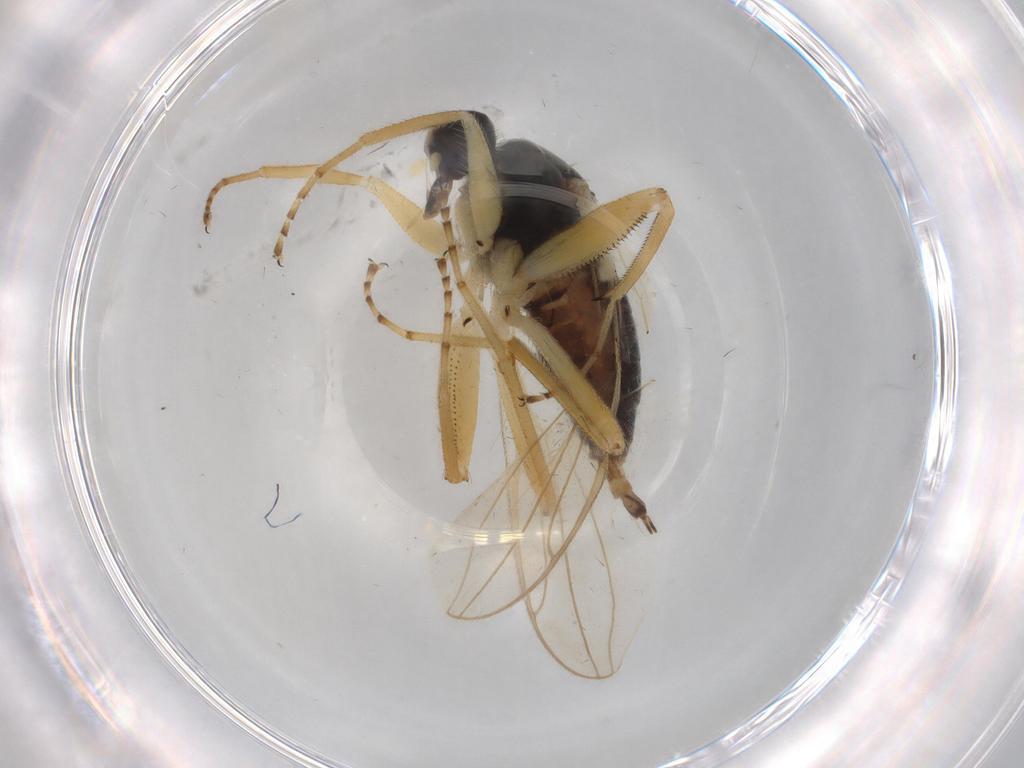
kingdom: Animalia
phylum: Arthropoda
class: Insecta
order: Diptera
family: Hybotidae
